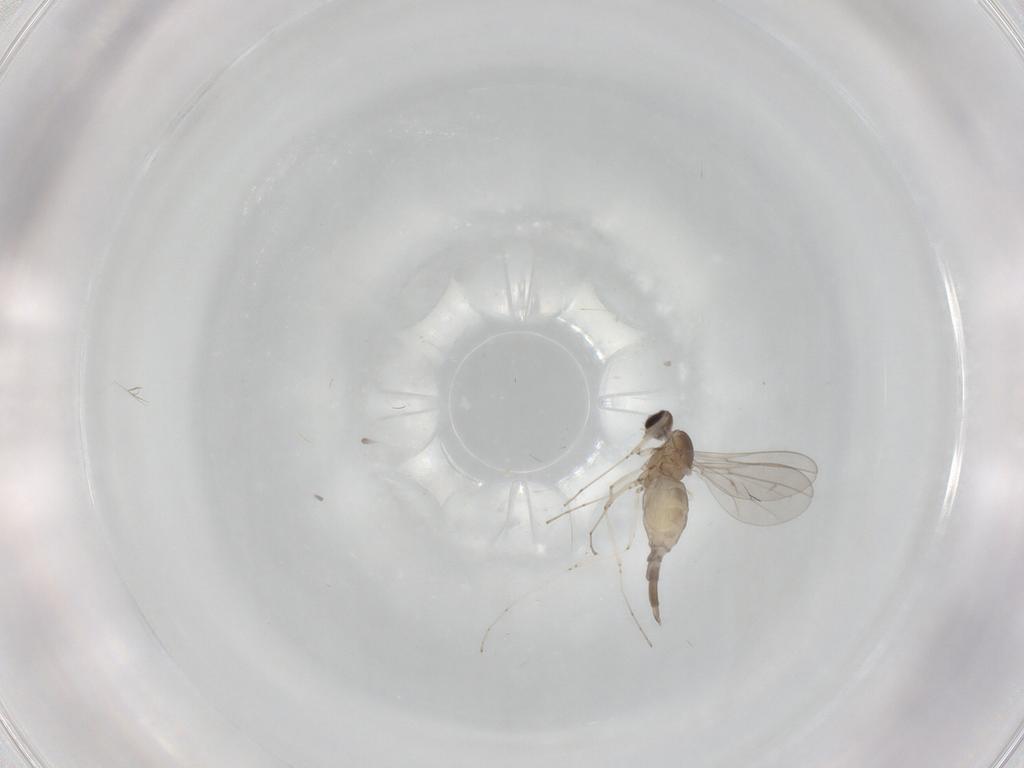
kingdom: Animalia
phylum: Arthropoda
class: Insecta
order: Diptera
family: Cecidomyiidae
